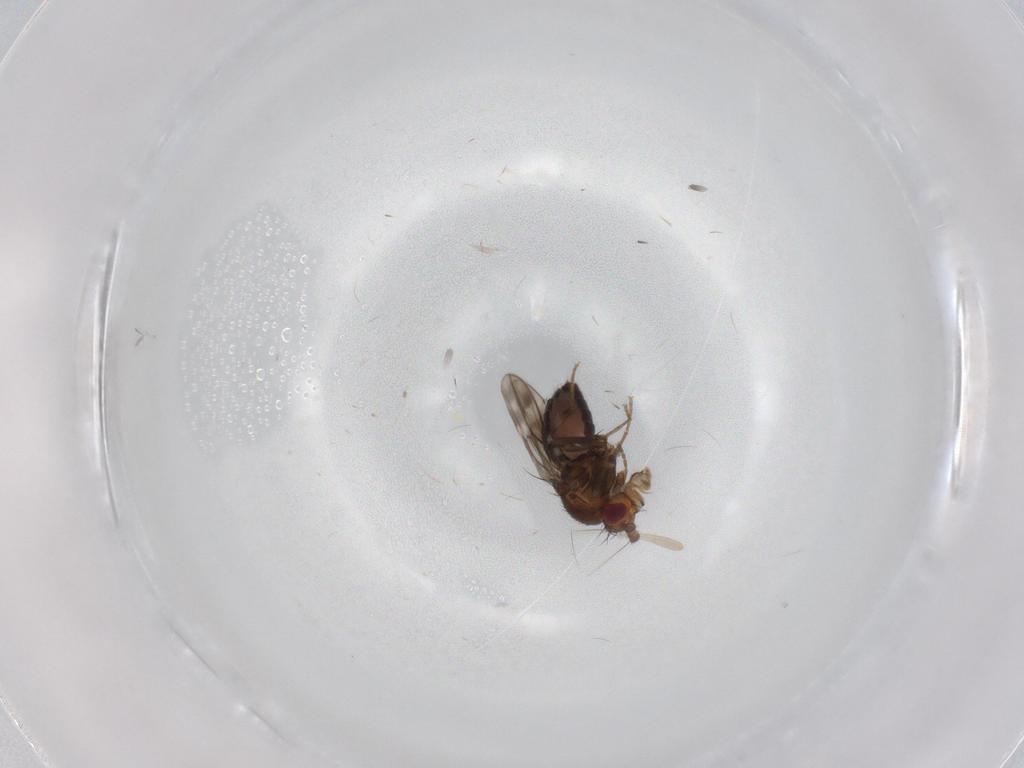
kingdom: Animalia
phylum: Arthropoda
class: Insecta
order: Diptera
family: Sphaeroceridae
